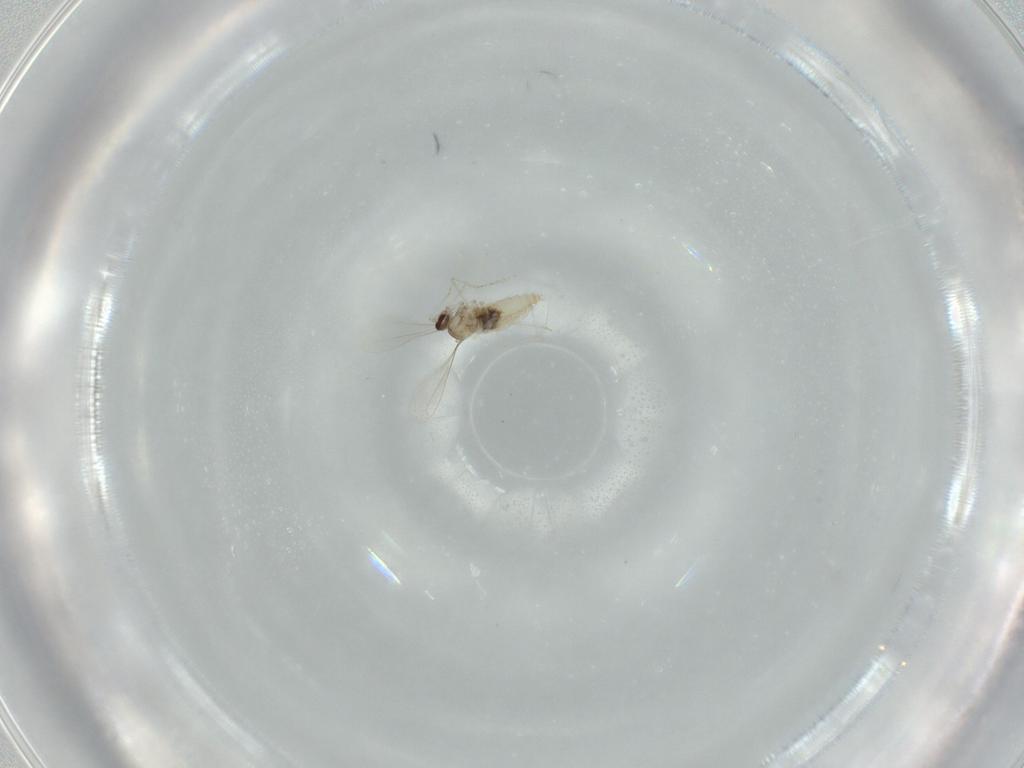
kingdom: Animalia
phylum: Arthropoda
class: Insecta
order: Diptera
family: Cecidomyiidae
